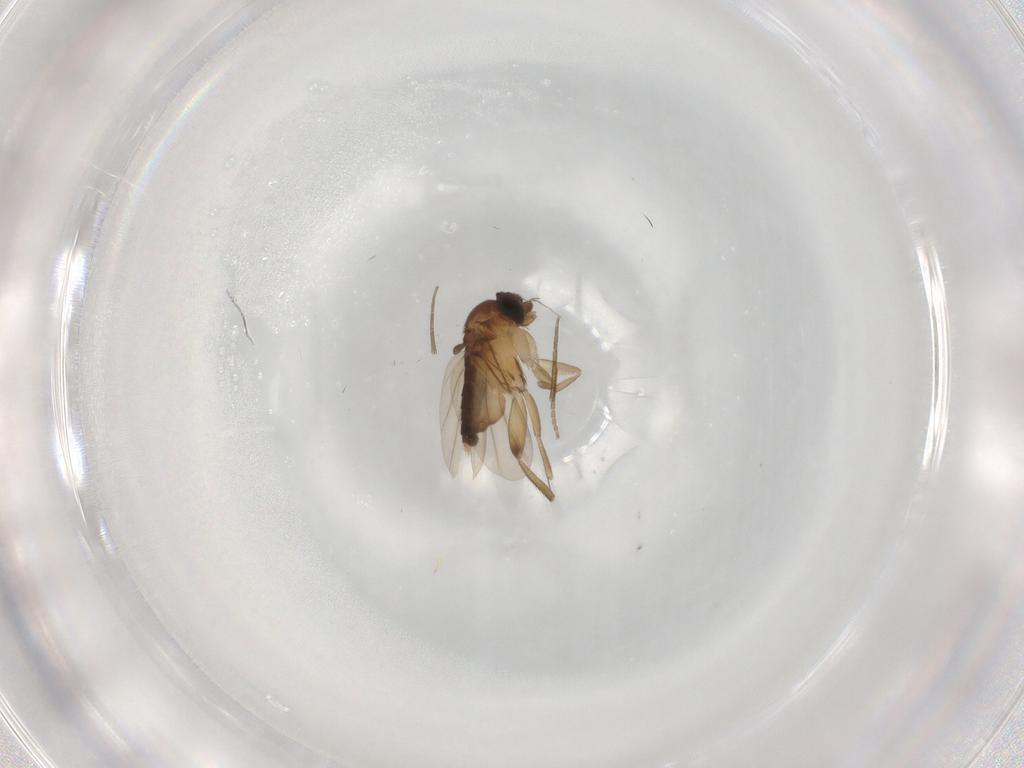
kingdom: Animalia
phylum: Arthropoda
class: Insecta
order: Diptera
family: Phoridae
